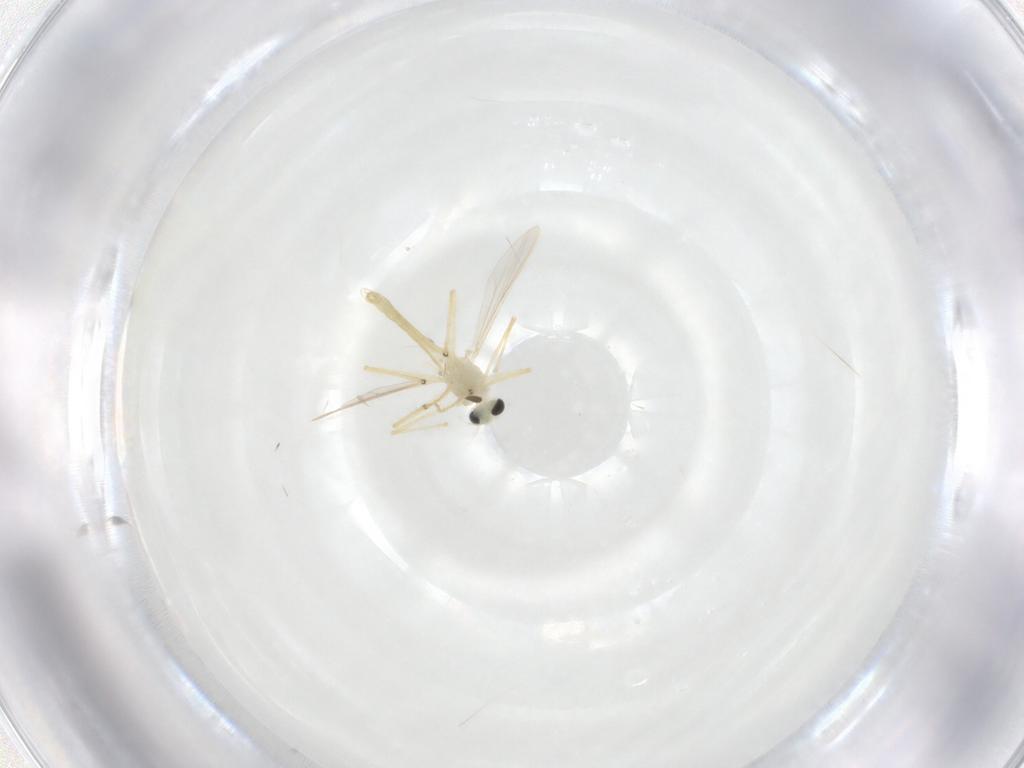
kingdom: Animalia
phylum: Arthropoda
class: Insecta
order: Diptera
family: Chironomidae
